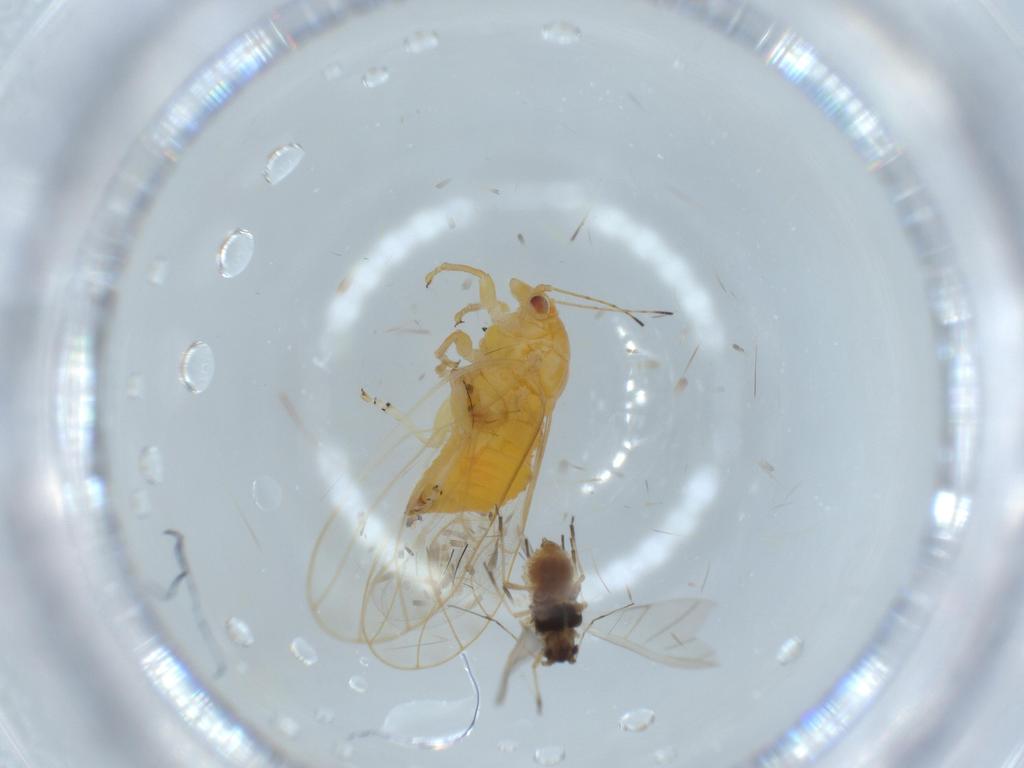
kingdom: Animalia
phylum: Arthropoda
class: Insecta
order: Hemiptera
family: Aphididae
